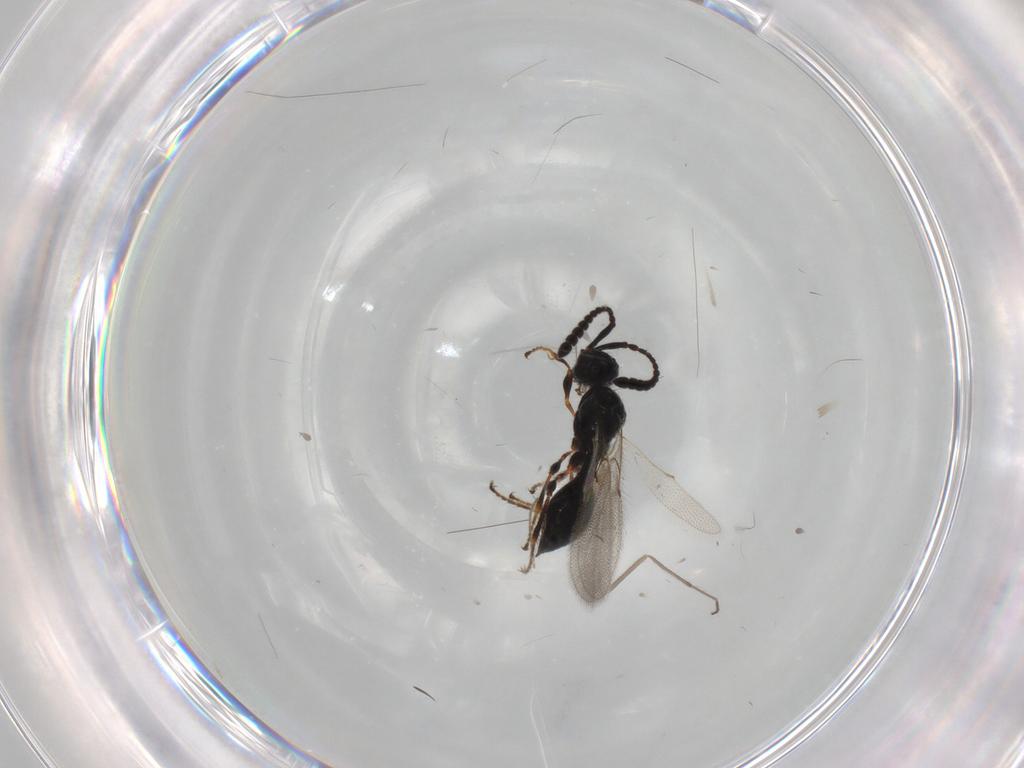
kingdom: Animalia
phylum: Arthropoda
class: Insecta
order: Hymenoptera
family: Diapriidae
